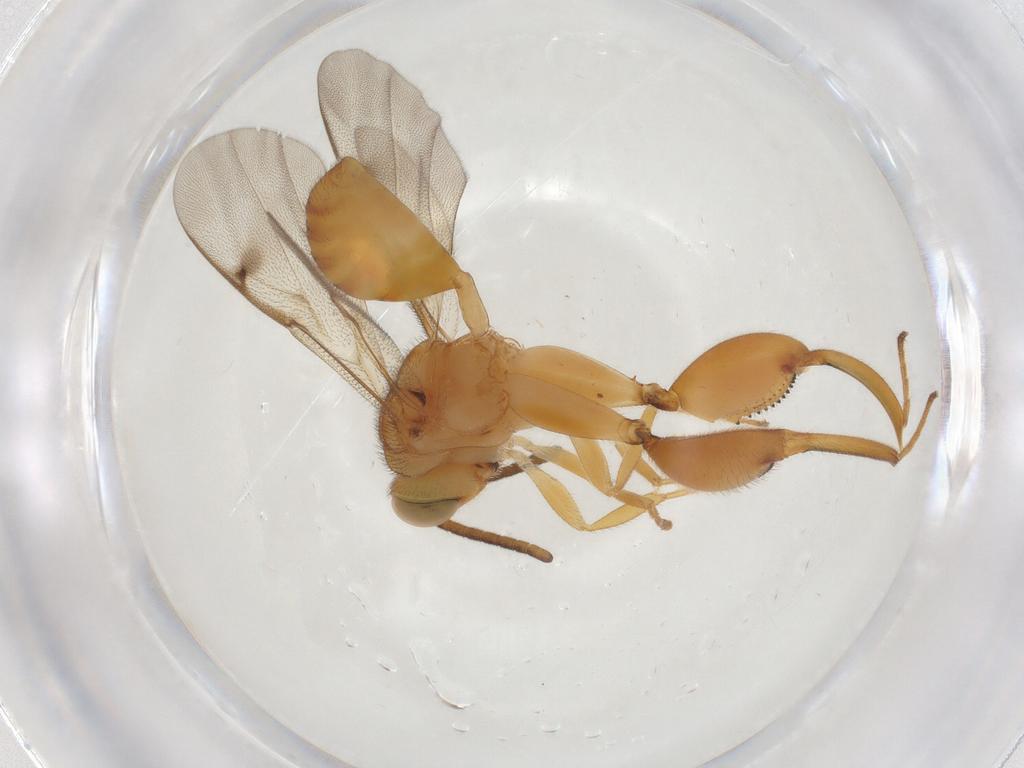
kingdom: Animalia
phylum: Arthropoda
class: Insecta
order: Hymenoptera
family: Chalcididae
